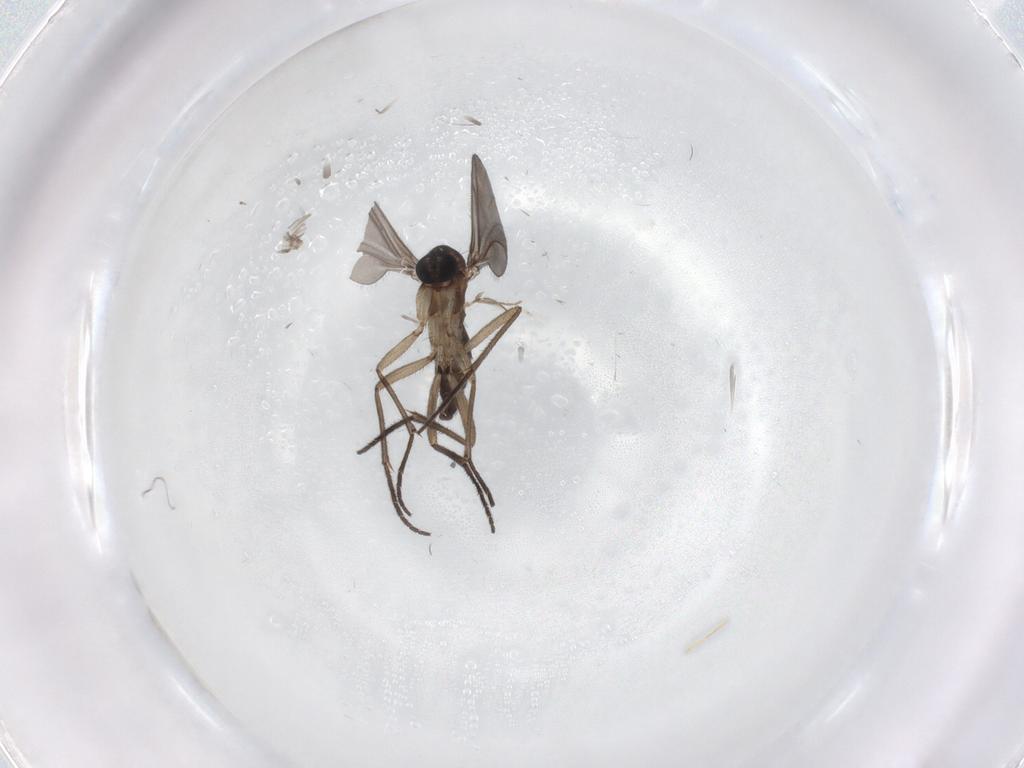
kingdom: Animalia
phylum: Arthropoda
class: Insecta
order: Diptera
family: Sciaridae
